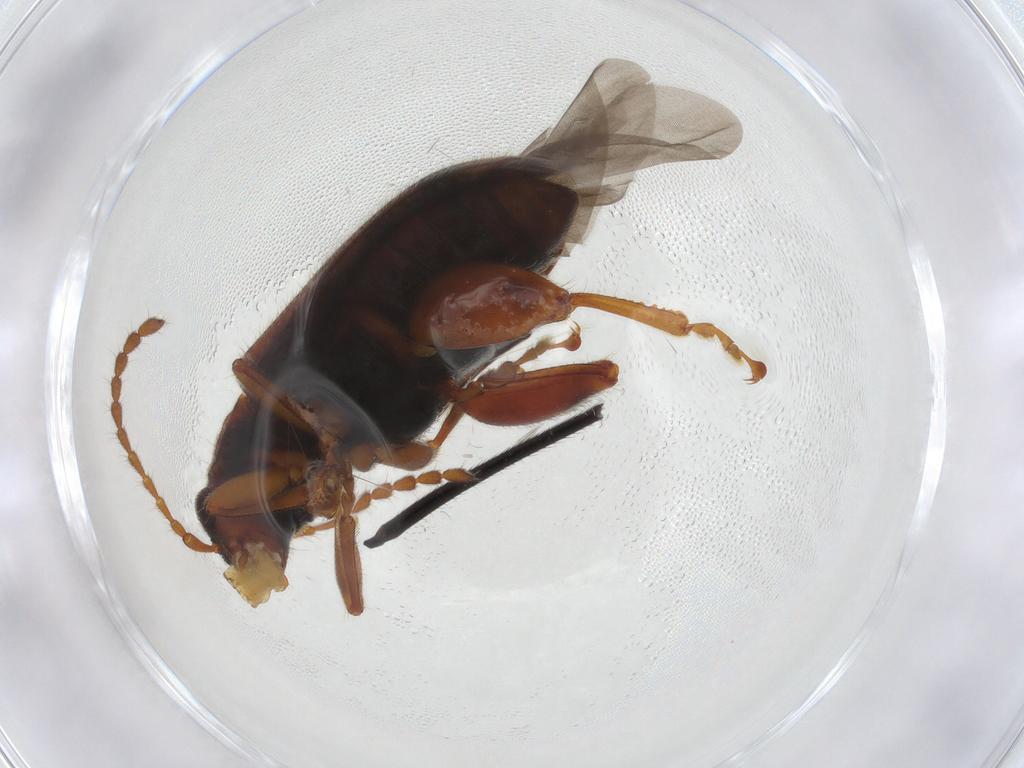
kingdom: Animalia
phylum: Arthropoda
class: Insecta
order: Coleoptera
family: Chrysomelidae
